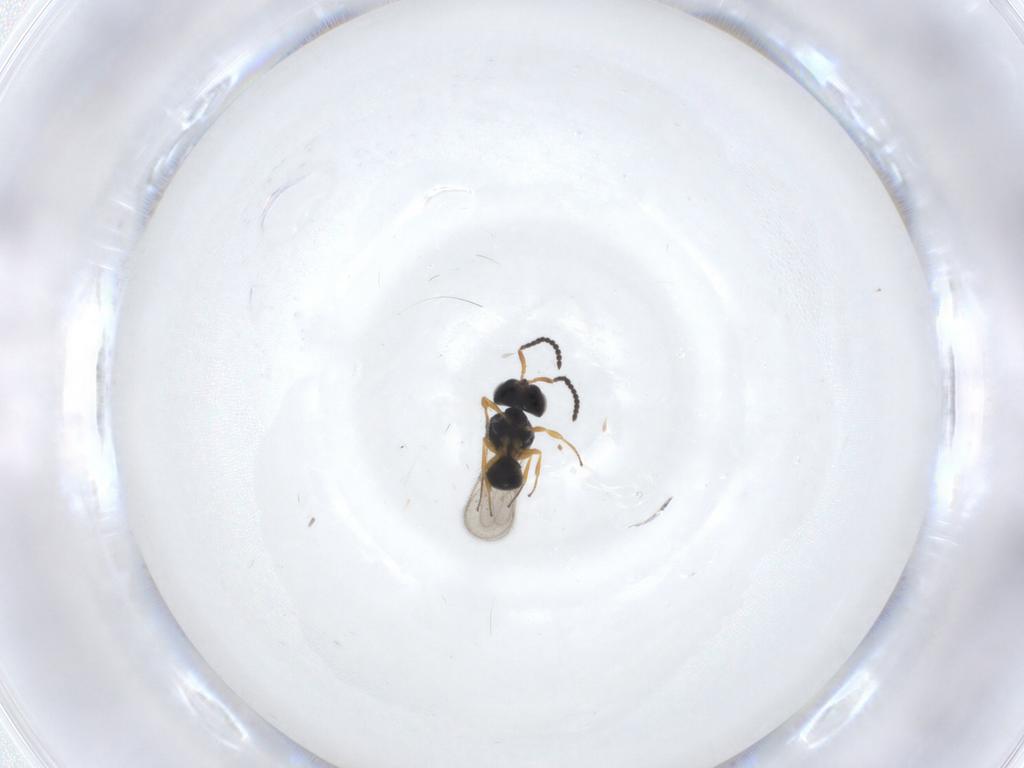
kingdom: Animalia
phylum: Arthropoda
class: Insecta
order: Hymenoptera
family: Scelionidae
